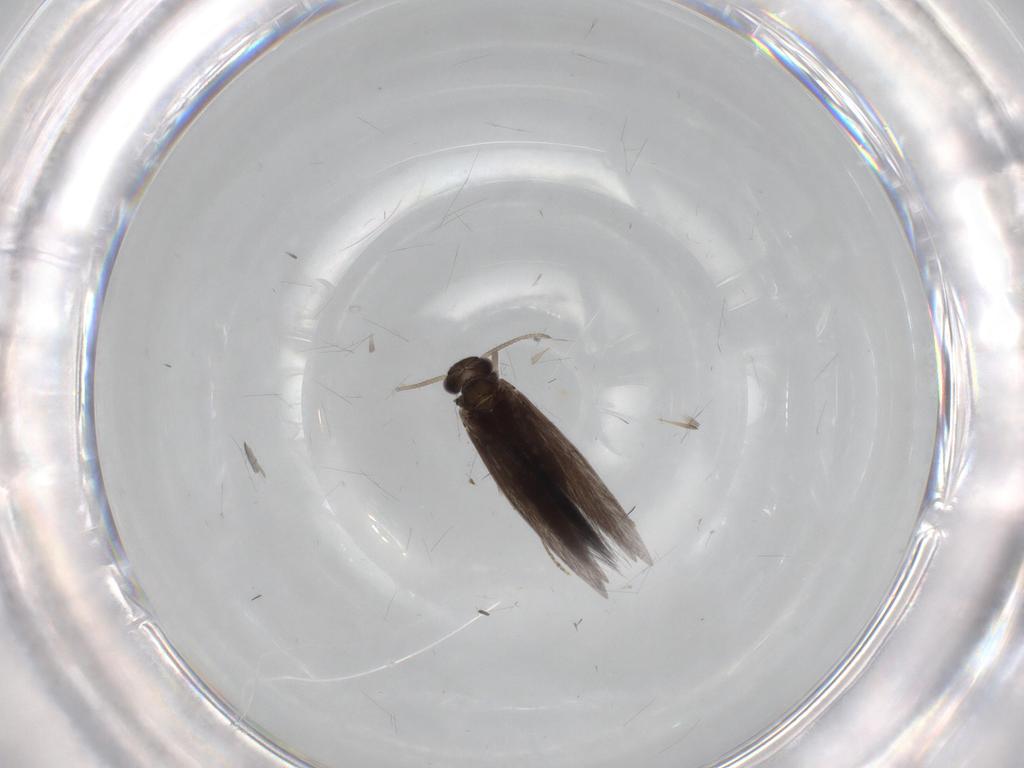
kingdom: Animalia
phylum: Arthropoda
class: Insecta
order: Trichoptera
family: Hydroptilidae
